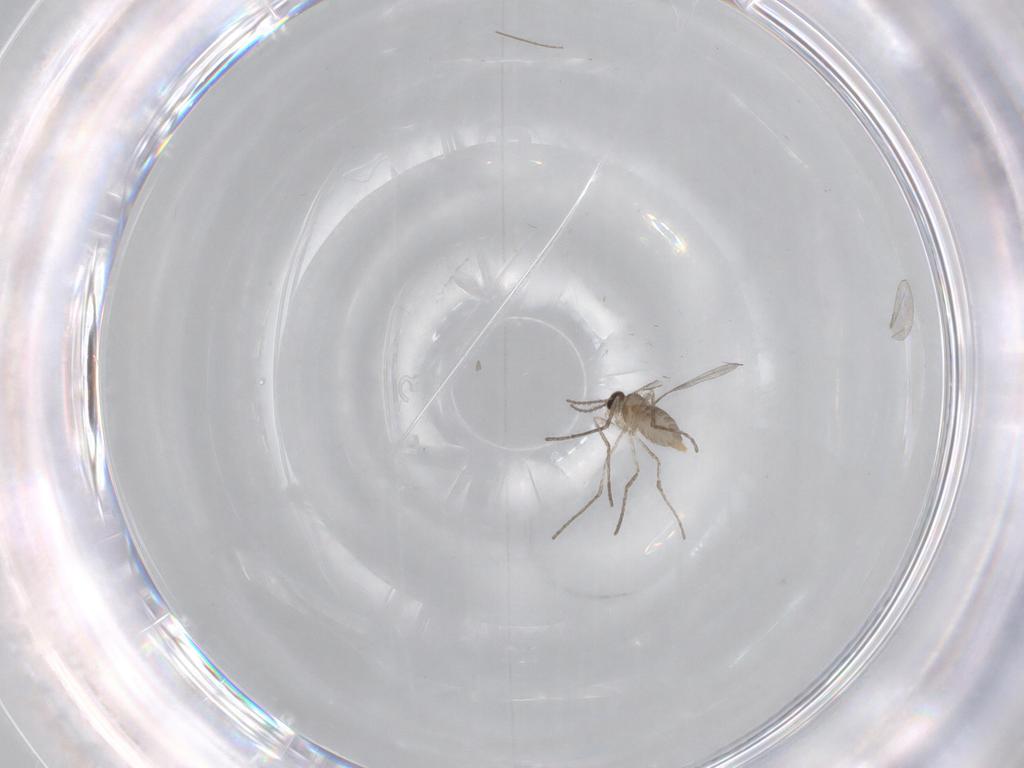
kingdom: Animalia
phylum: Arthropoda
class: Insecta
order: Diptera
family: Cecidomyiidae
